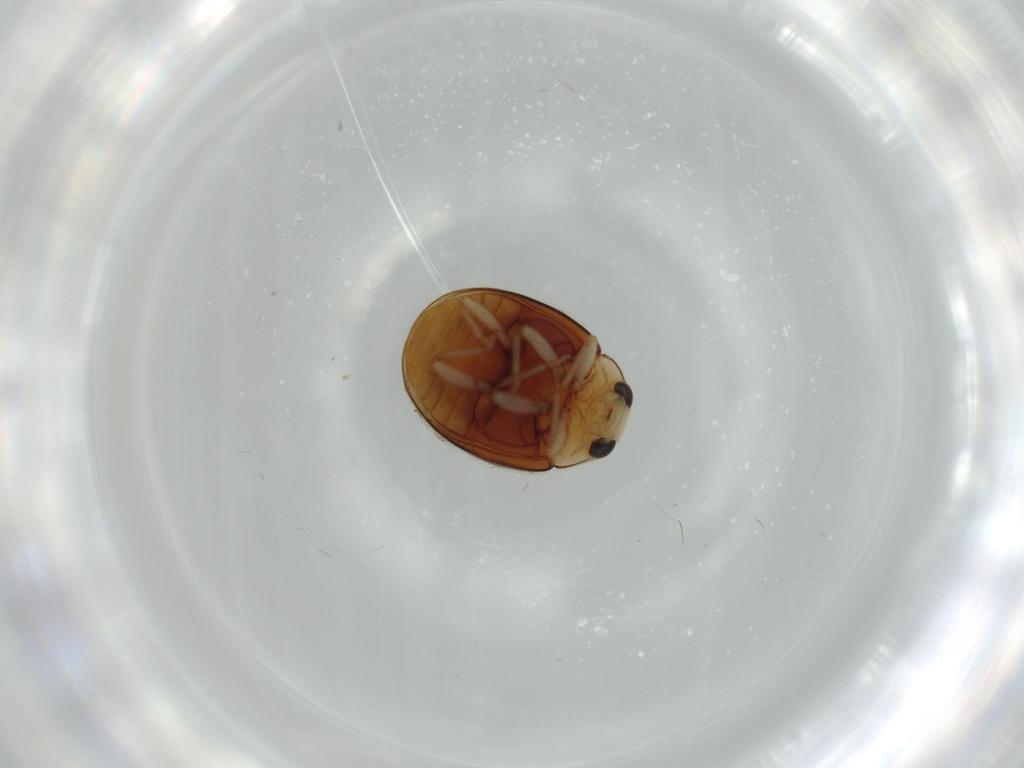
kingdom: Animalia
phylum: Arthropoda
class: Insecta
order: Coleoptera
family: Coccinellidae
